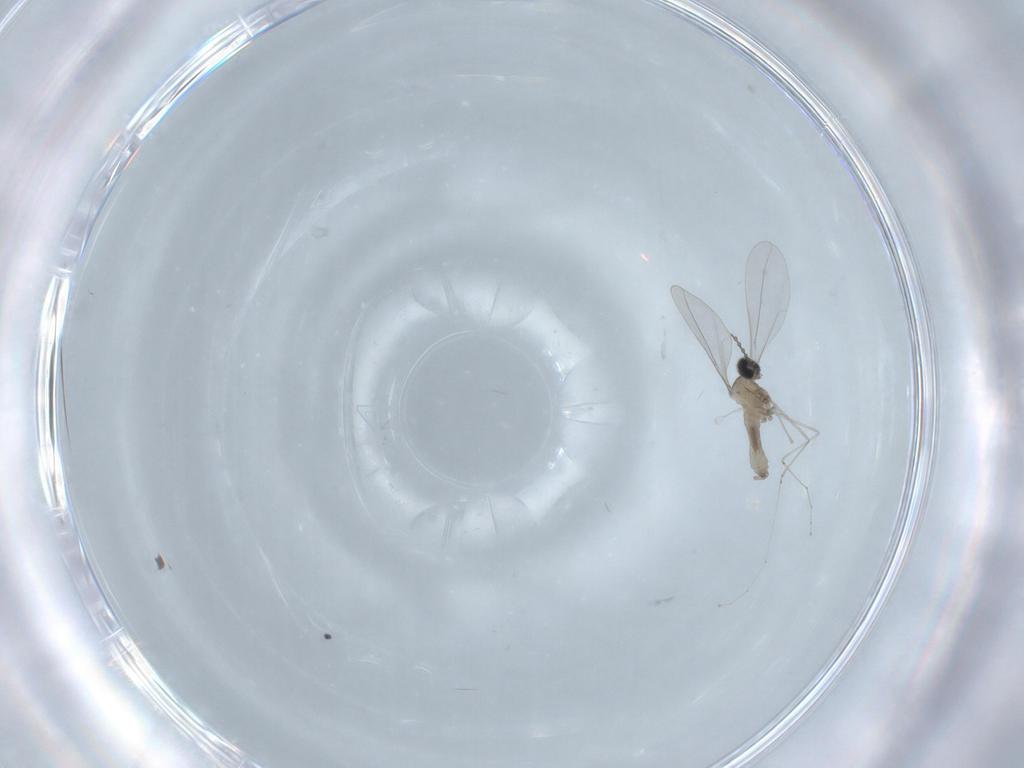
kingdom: Animalia
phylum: Arthropoda
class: Insecta
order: Diptera
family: Cecidomyiidae
